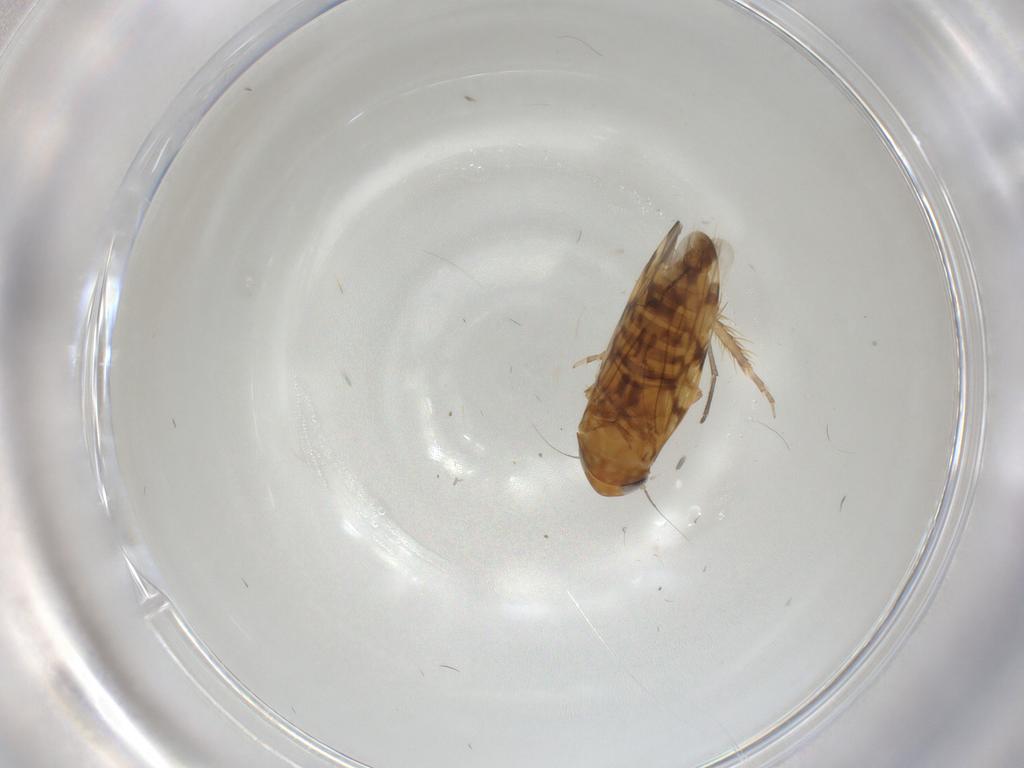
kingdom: Animalia
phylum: Arthropoda
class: Insecta
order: Hemiptera
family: Cicadellidae
